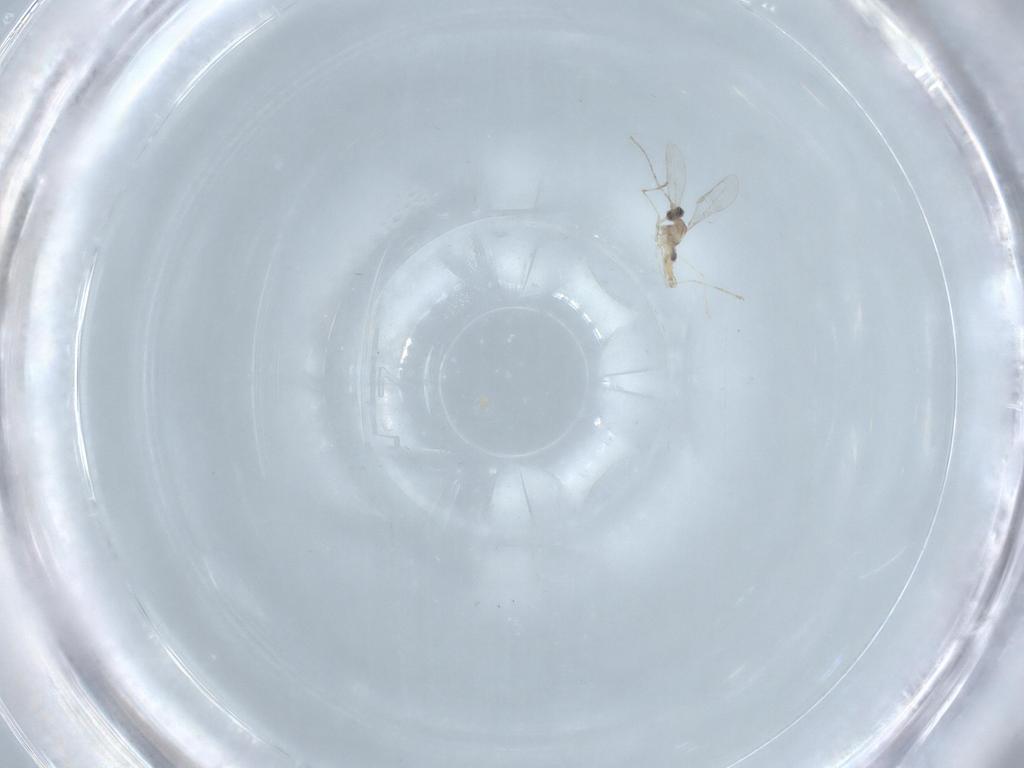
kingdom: Animalia
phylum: Arthropoda
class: Insecta
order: Diptera
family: Cecidomyiidae
